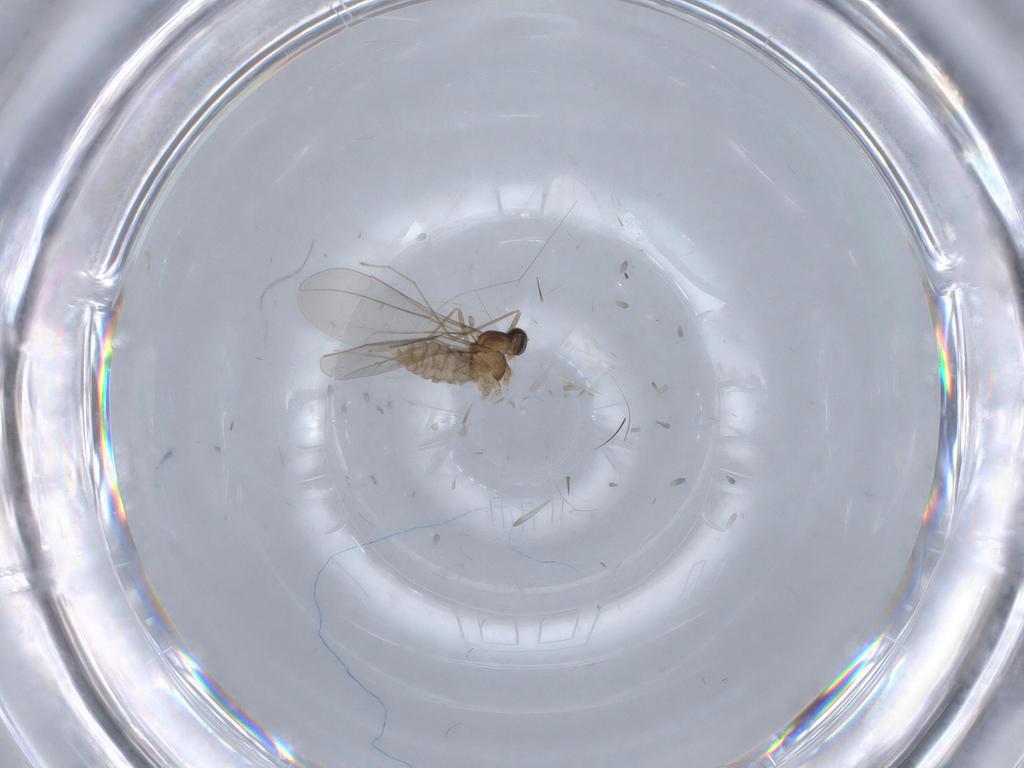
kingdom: Animalia
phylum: Arthropoda
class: Insecta
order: Diptera
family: Cecidomyiidae
